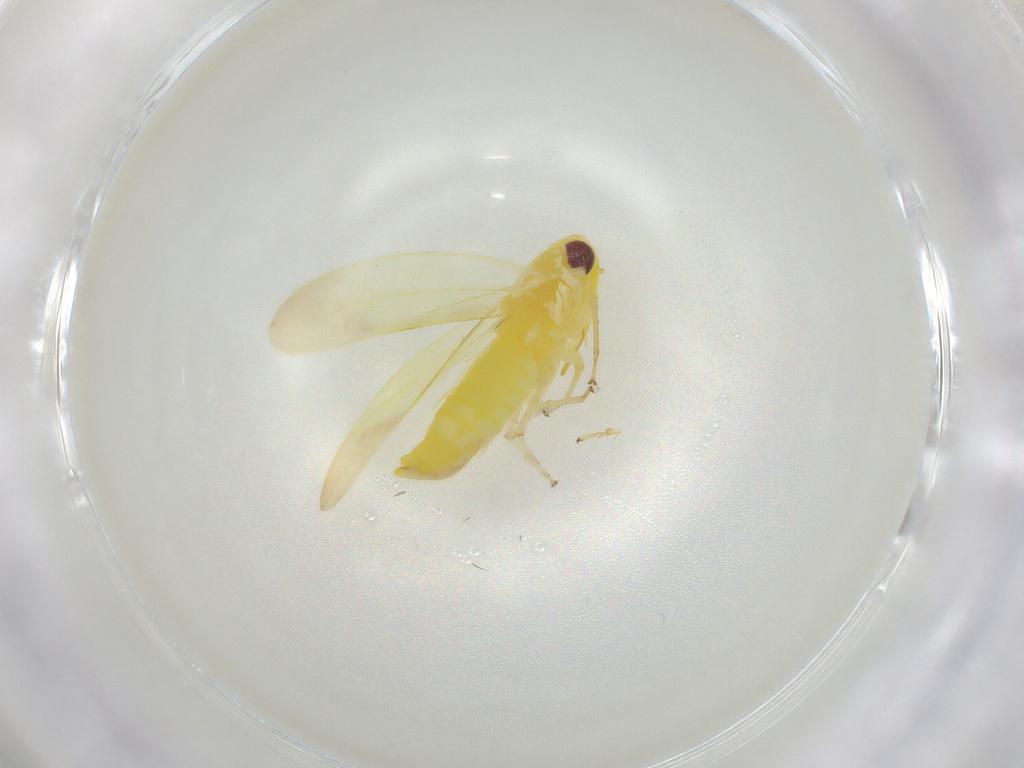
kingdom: Animalia
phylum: Arthropoda
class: Insecta
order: Hemiptera
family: Cicadellidae
